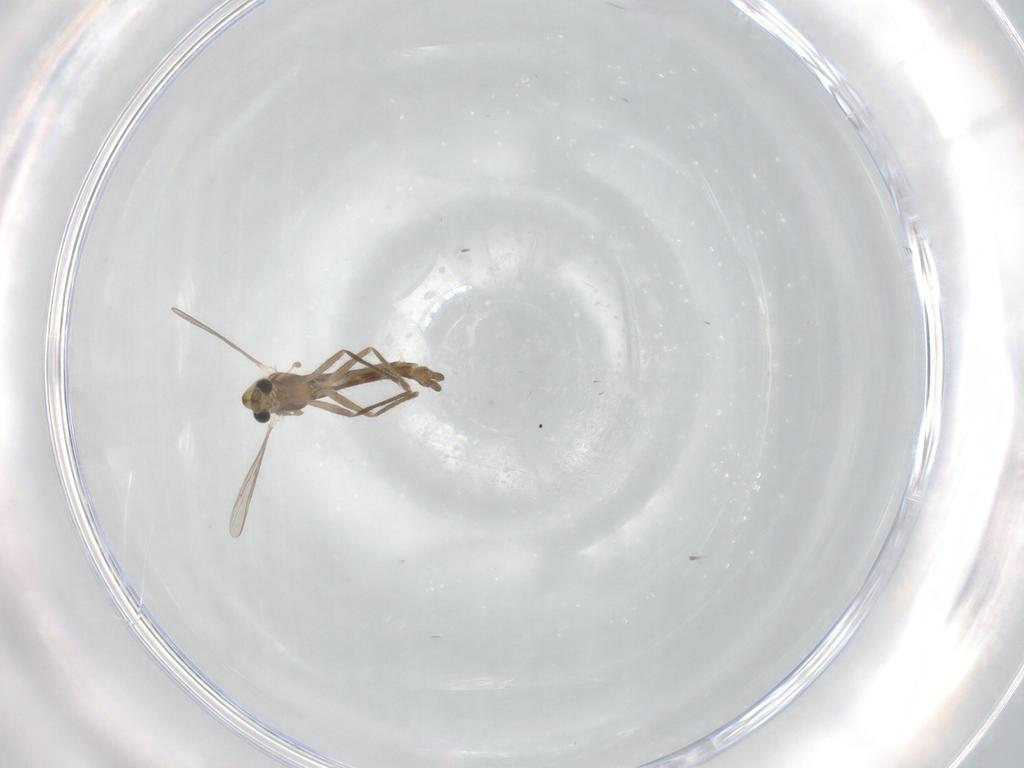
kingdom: Animalia
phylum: Arthropoda
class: Insecta
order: Diptera
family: Chironomidae
